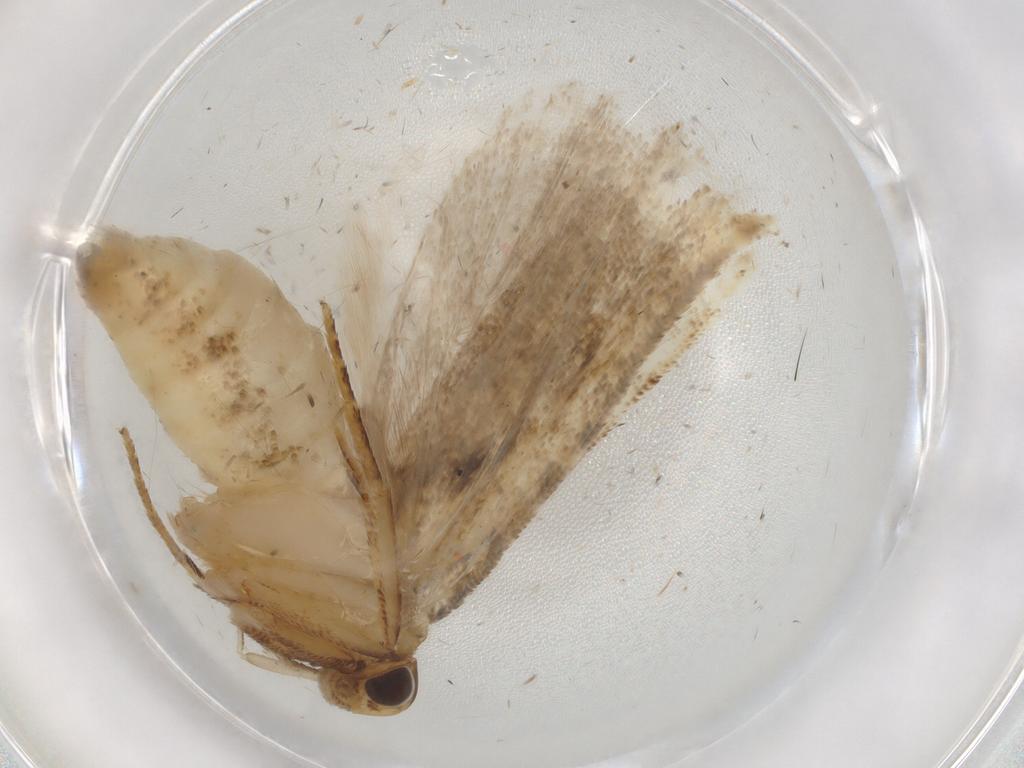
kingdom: Animalia
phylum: Arthropoda
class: Insecta
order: Lepidoptera
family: Gelechiidae
